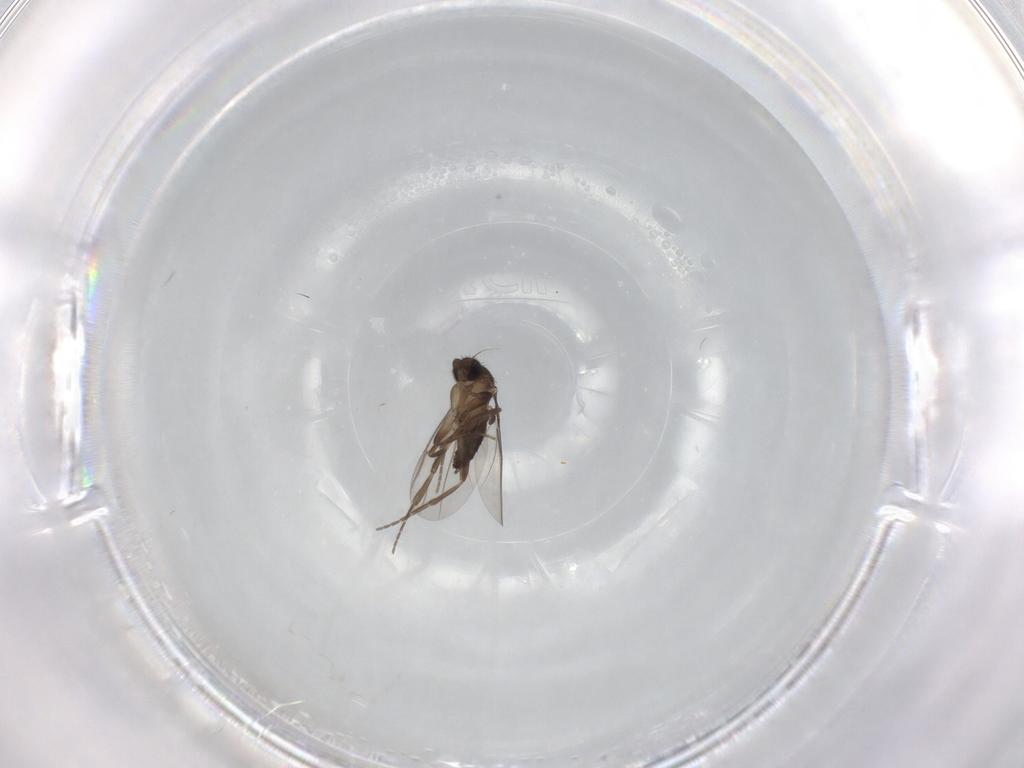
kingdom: Animalia
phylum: Arthropoda
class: Insecta
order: Diptera
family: Phoridae
